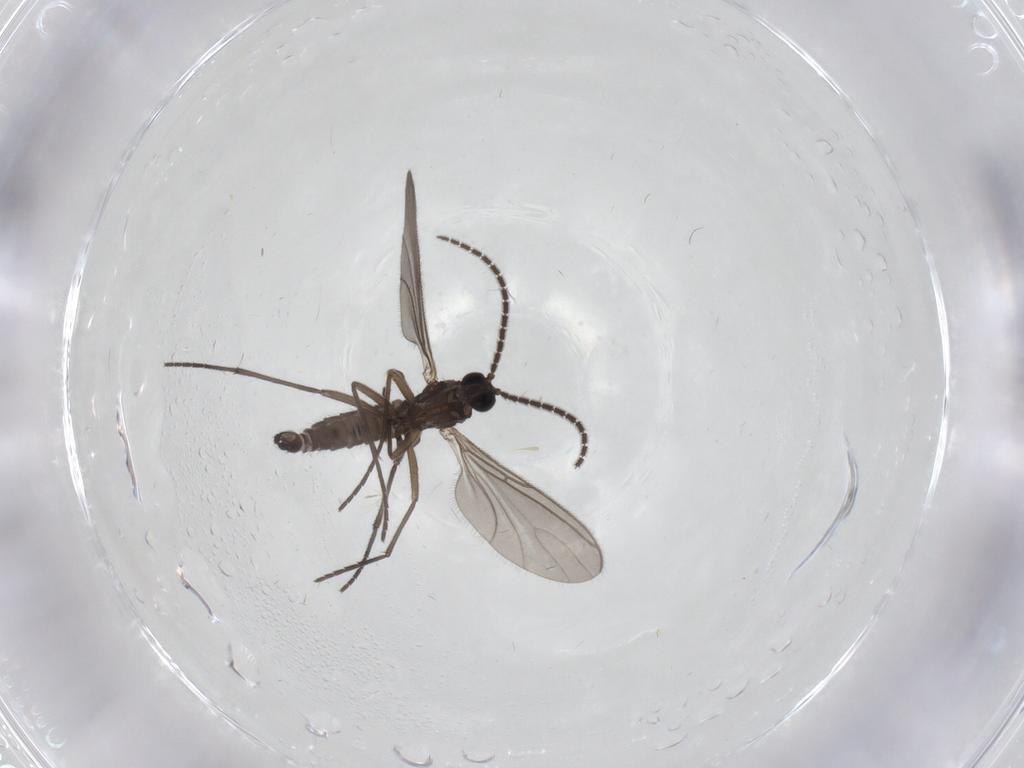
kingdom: Animalia
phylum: Arthropoda
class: Insecta
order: Diptera
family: Sciaridae
